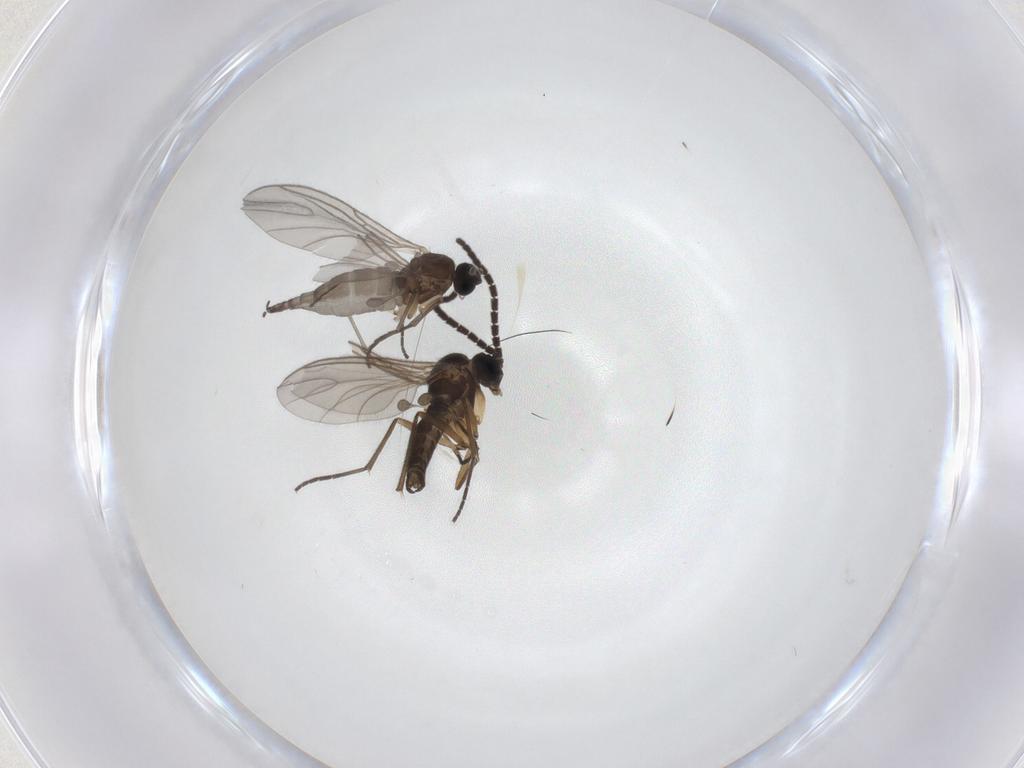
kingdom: Animalia
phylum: Arthropoda
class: Insecta
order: Diptera
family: Sciaridae
